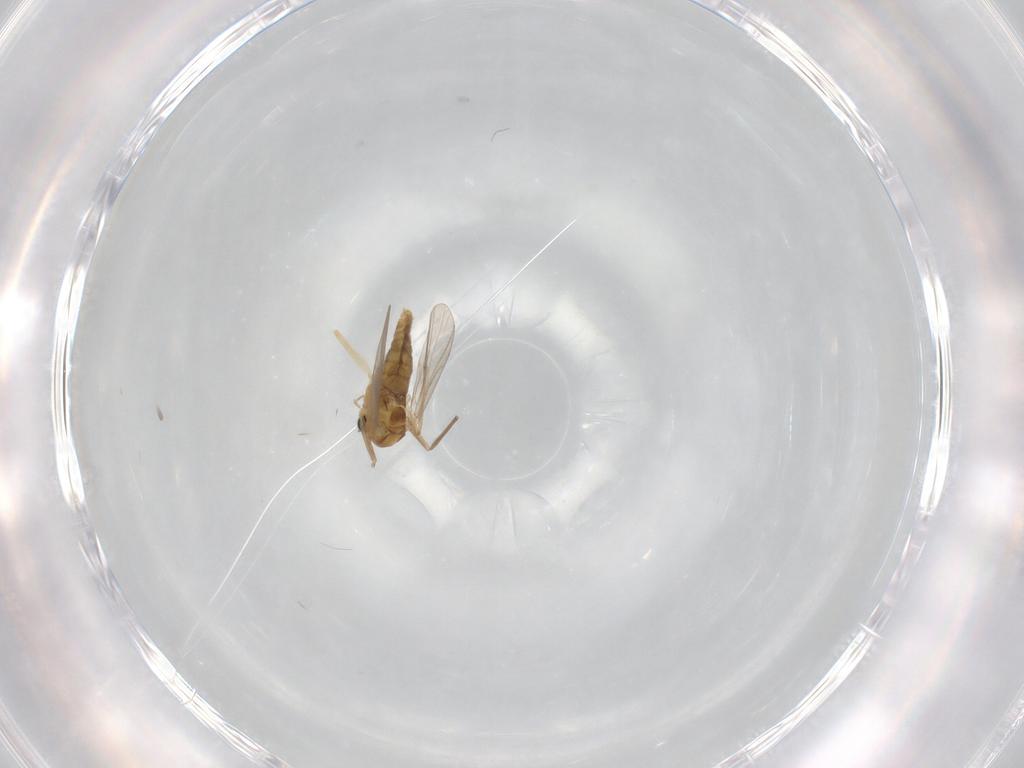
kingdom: Animalia
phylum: Arthropoda
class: Insecta
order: Diptera
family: Chironomidae
